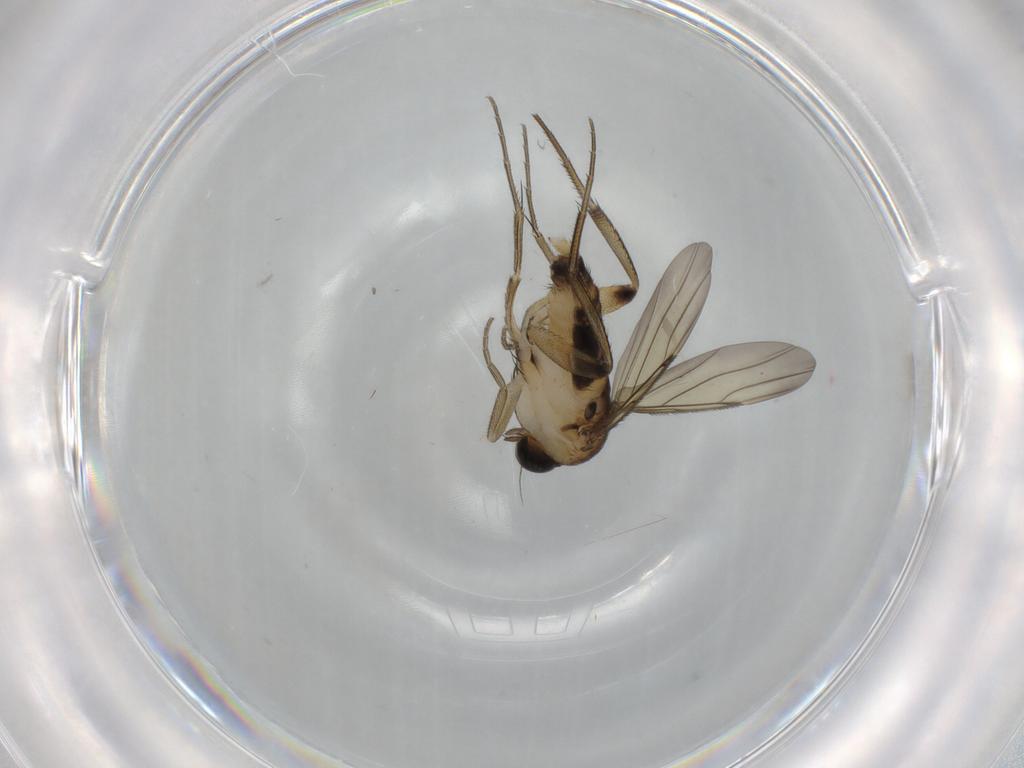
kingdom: Animalia
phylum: Arthropoda
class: Insecta
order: Diptera
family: Phoridae
